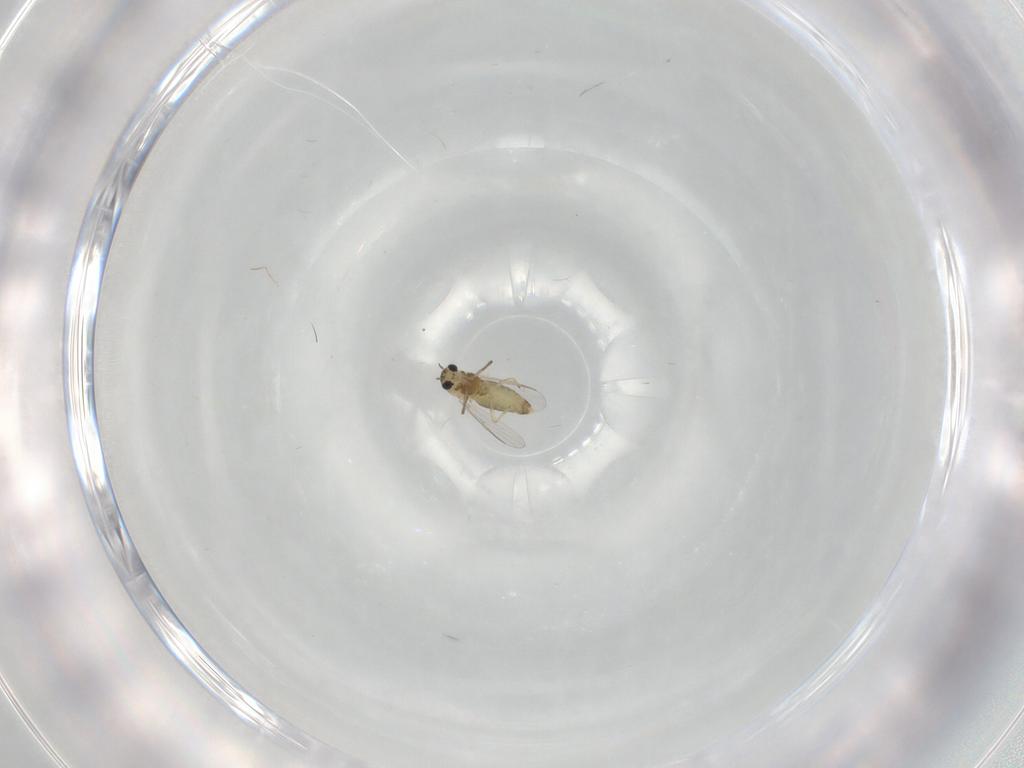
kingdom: Animalia
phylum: Arthropoda
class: Insecta
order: Diptera
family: Chironomidae
